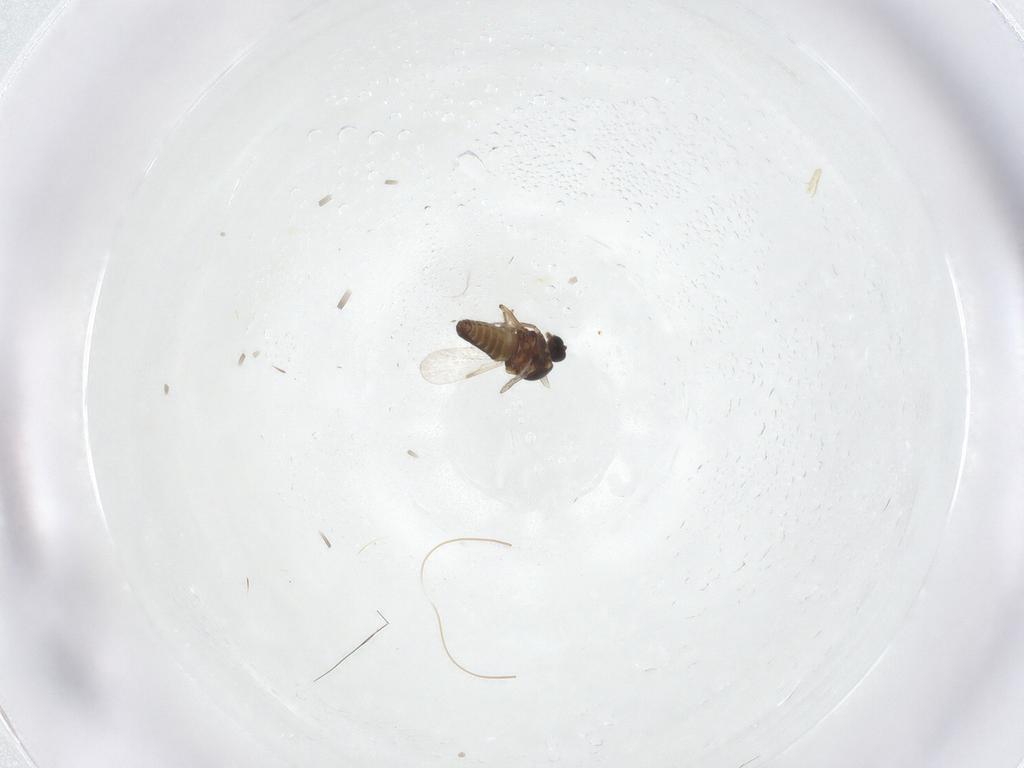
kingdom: Animalia
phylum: Arthropoda
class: Insecta
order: Diptera
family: Ceratopogonidae
